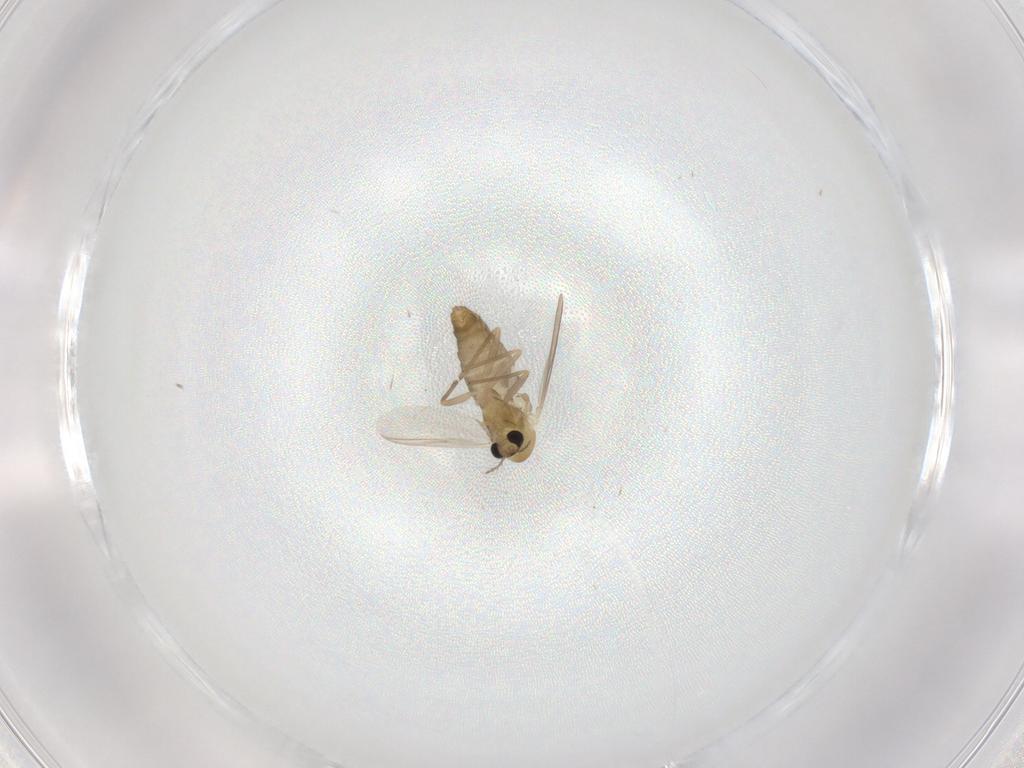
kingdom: Animalia
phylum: Arthropoda
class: Insecta
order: Diptera
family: Chironomidae
